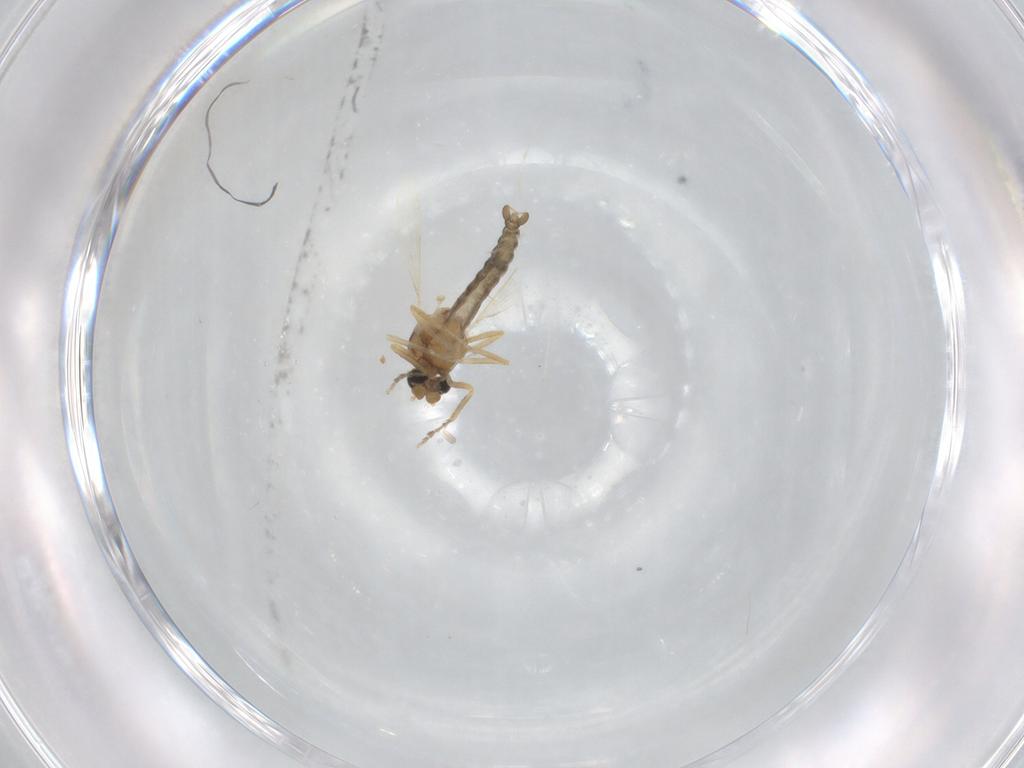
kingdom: Animalia
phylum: Arthropoda
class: Insecta
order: Diptera
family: Ceratopogonidae
